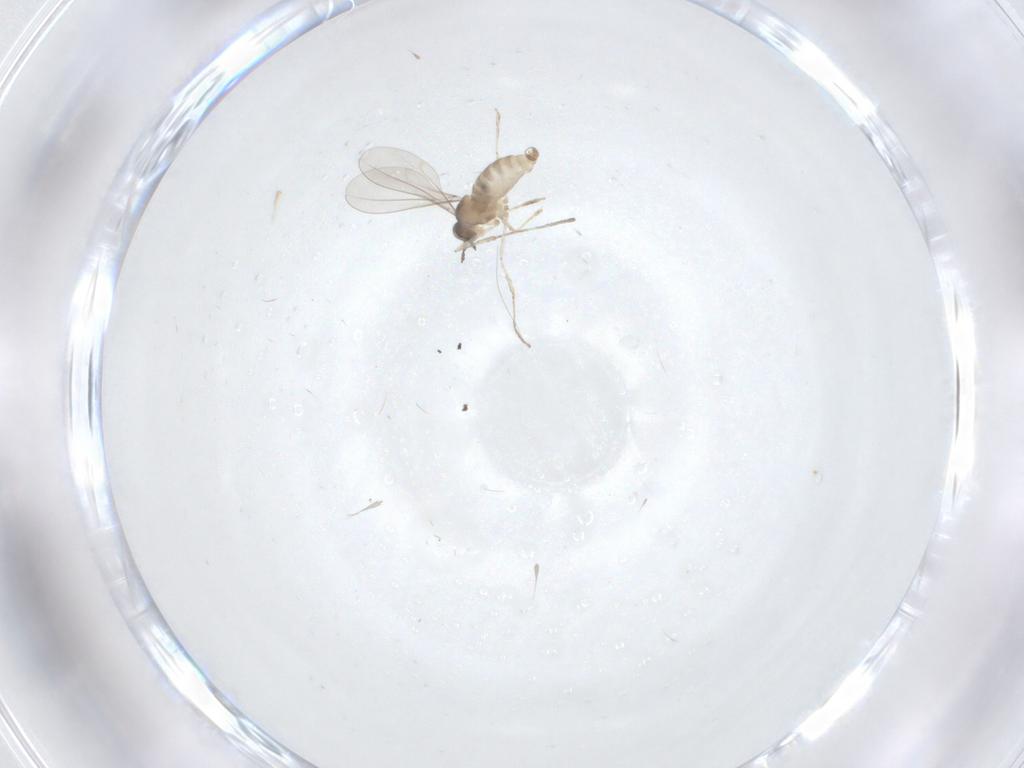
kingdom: Animalia
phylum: Arthropoda
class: Insecta
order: Diptera
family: Cecidomyiidae
